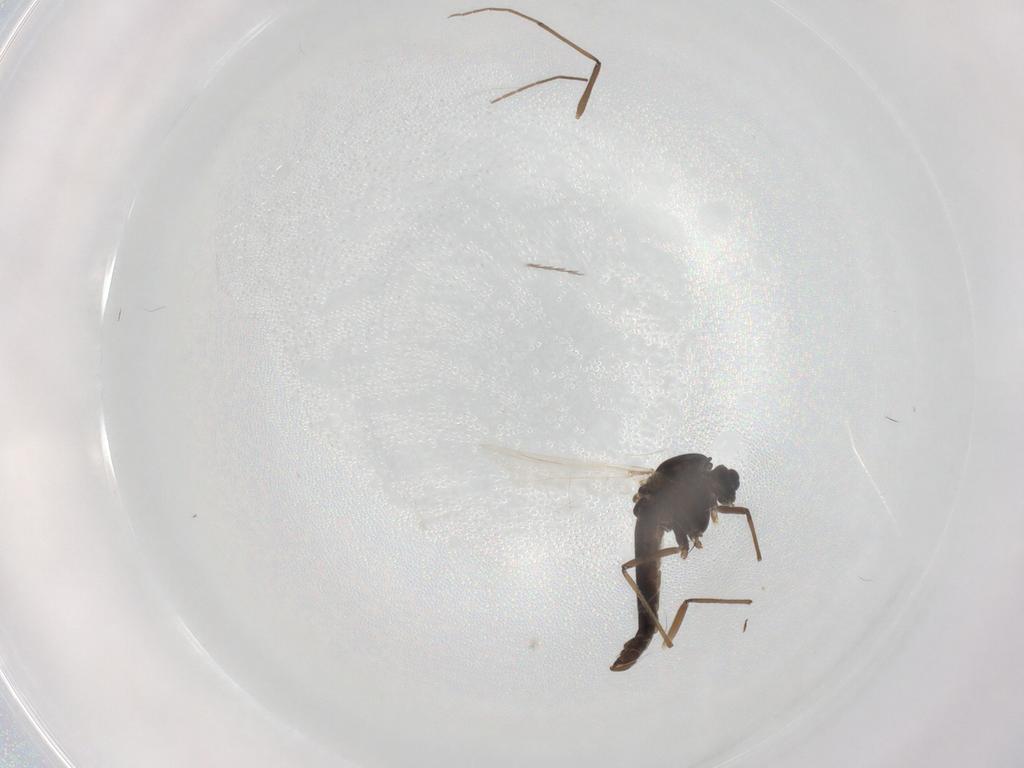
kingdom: Animalia
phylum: Arthropoda
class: Insecta
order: Diptera
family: Chironomidae
